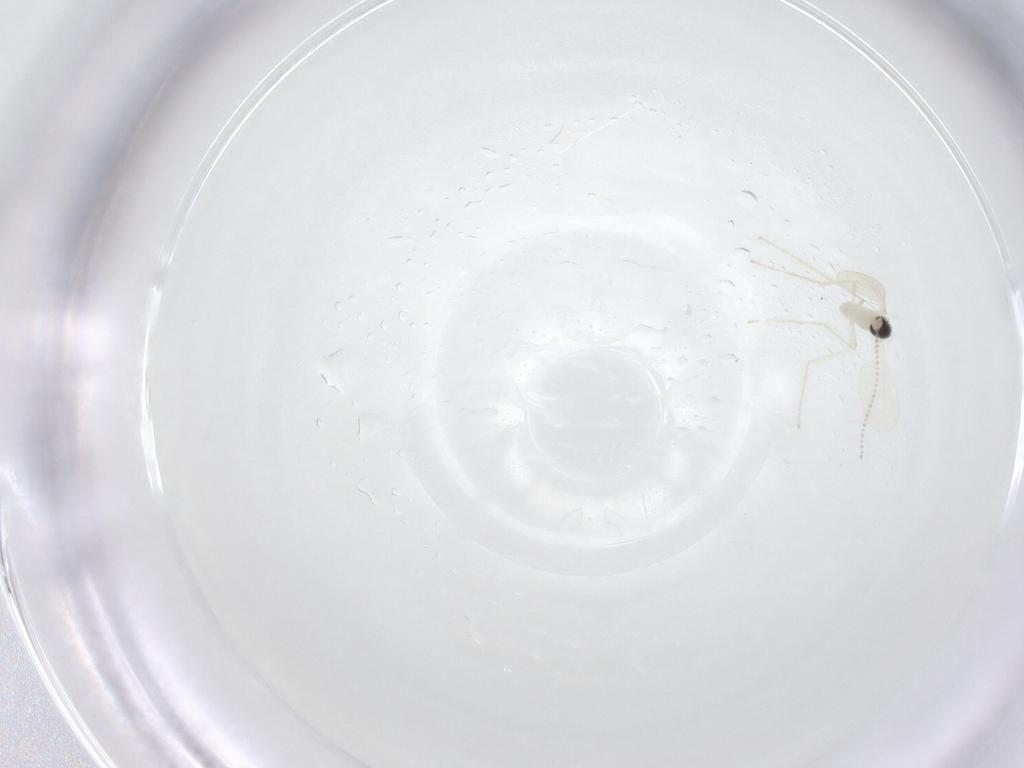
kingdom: Animalia
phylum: Arthropoda
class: Insecta
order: Diptera
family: Cecidomyiidae
